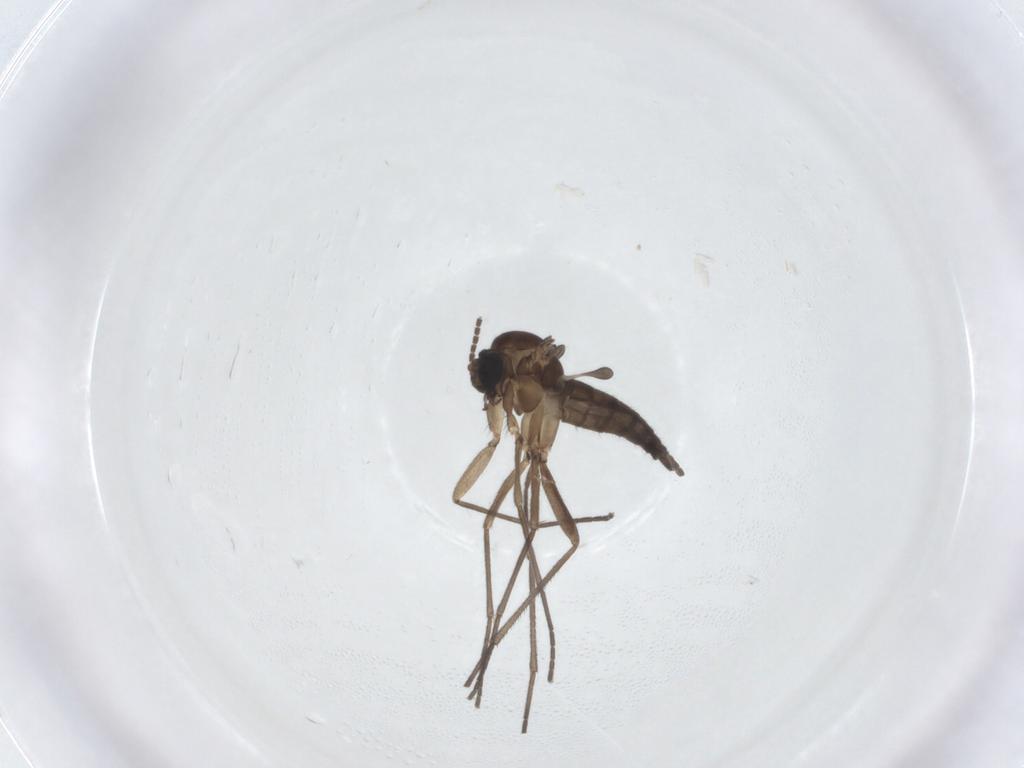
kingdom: Animalia
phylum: Arthropoda
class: Insecta
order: Diptera
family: Sciaridae
